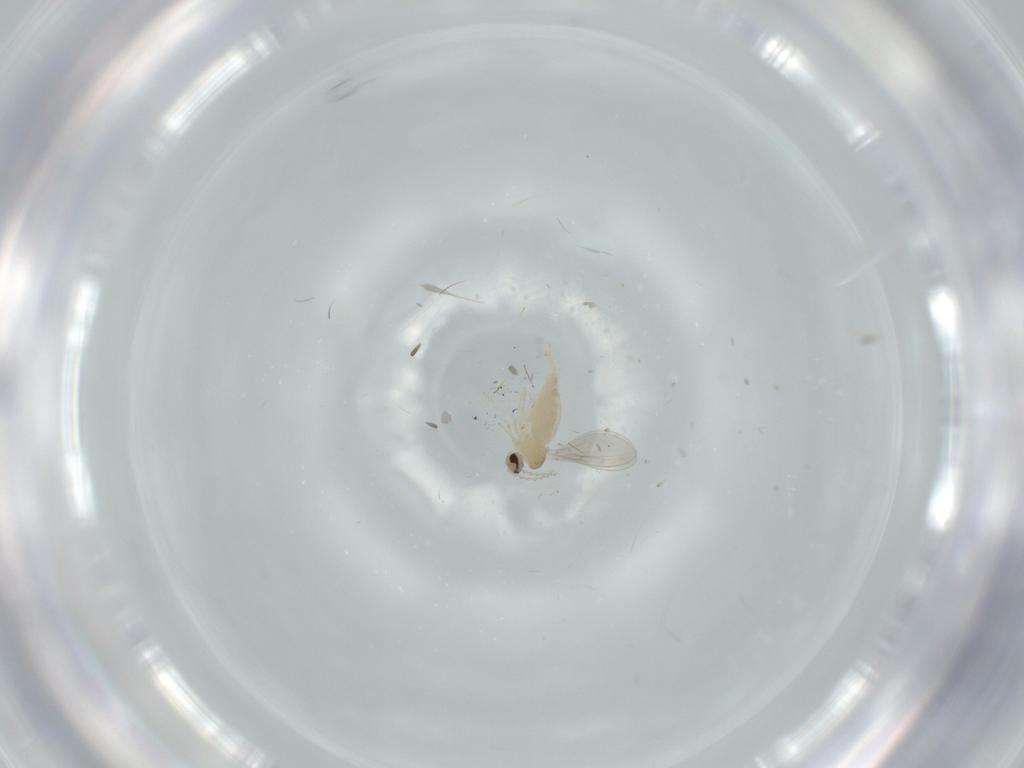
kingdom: Animalia
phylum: Arthropoda
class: Insecta
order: Diptera
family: Cecidomyiidae
